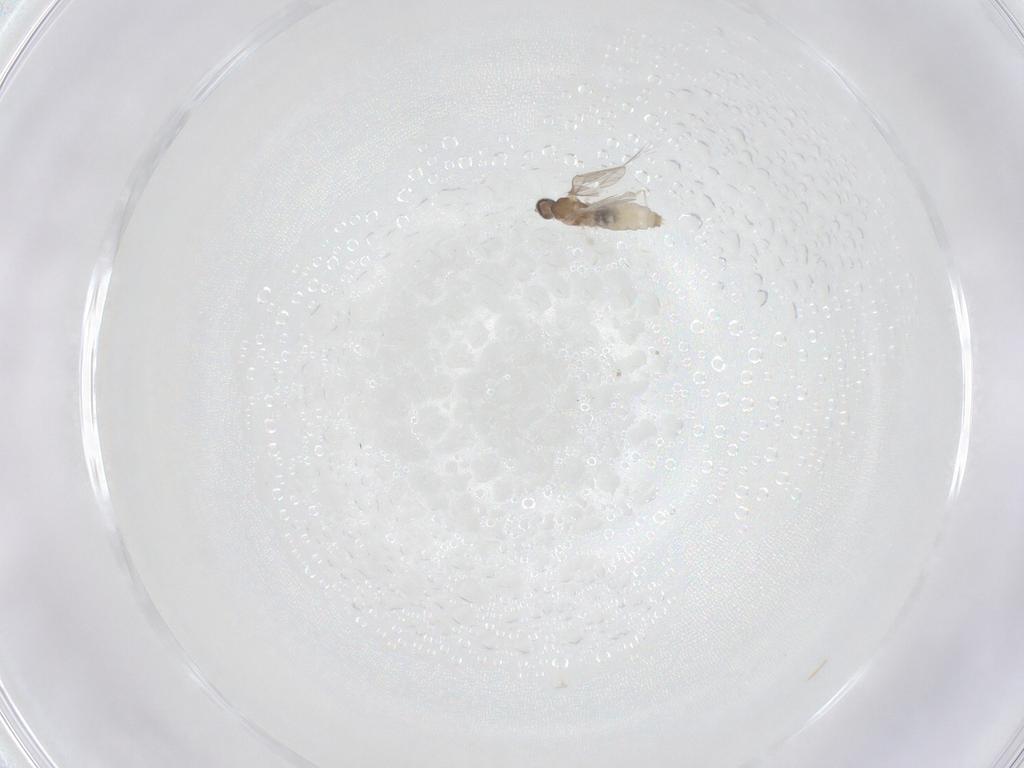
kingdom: Animalia
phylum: Arthropoda
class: Insecta
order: Diptera
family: Cecidomyiidae
